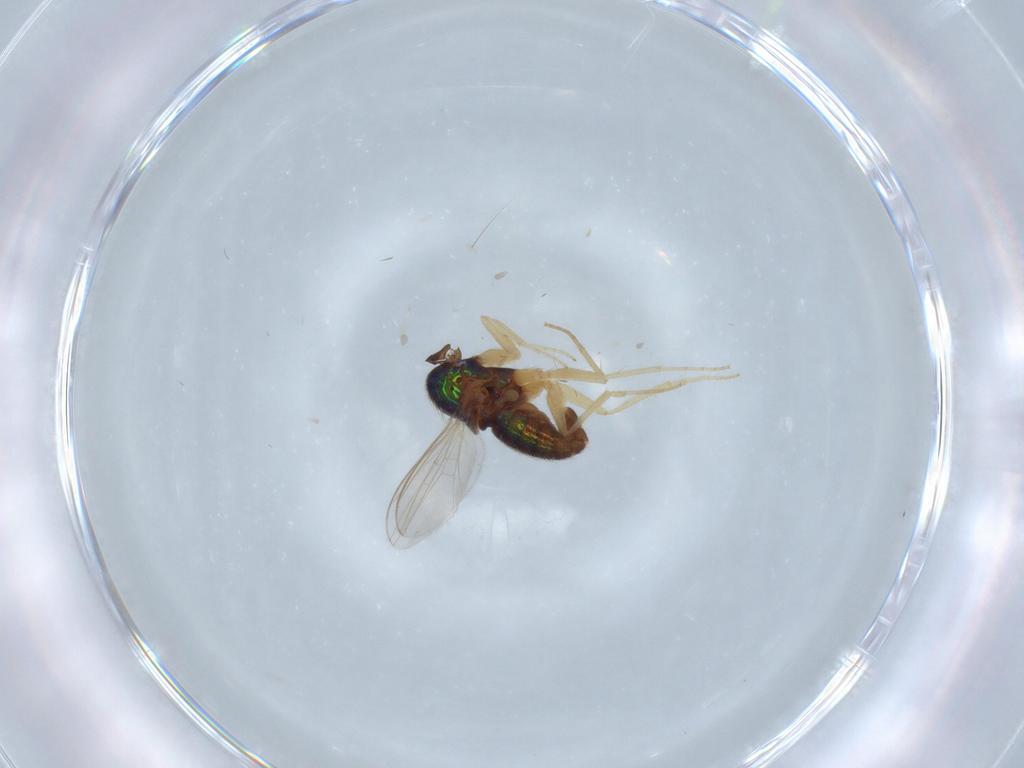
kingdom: Animalia
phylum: Arthropoda
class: Insecta
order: Diptera
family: Dolichopodidae
